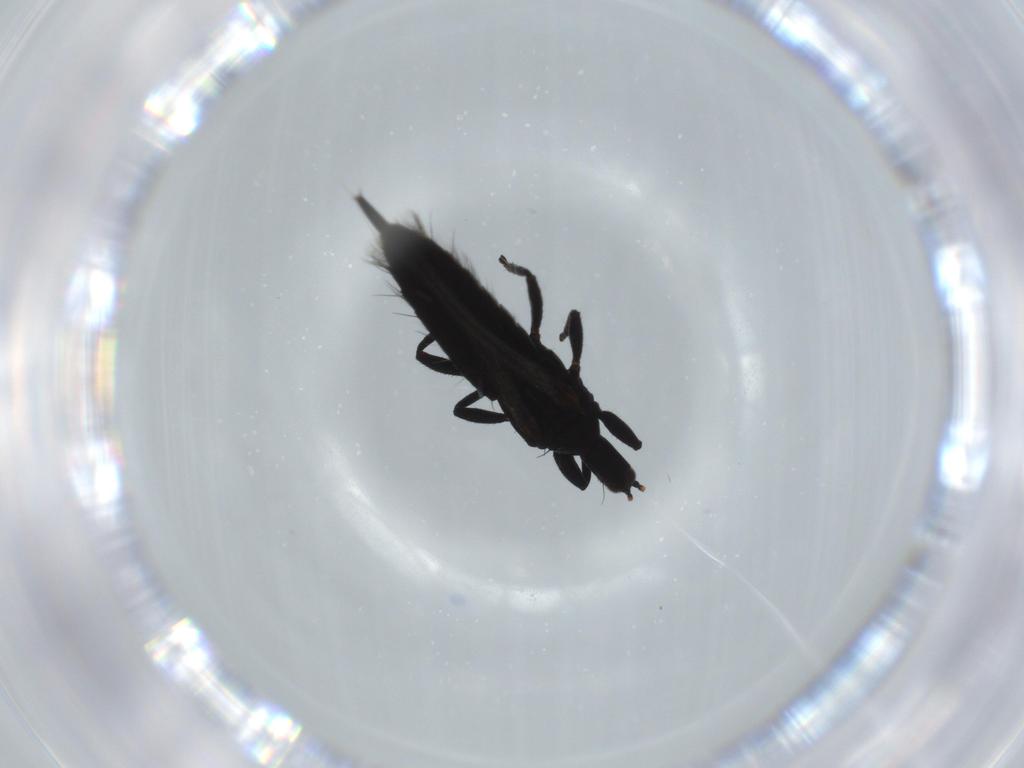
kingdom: Animalia
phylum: Arthropoda
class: Insecta
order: Thysanoptera
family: Phlaeothripidae
